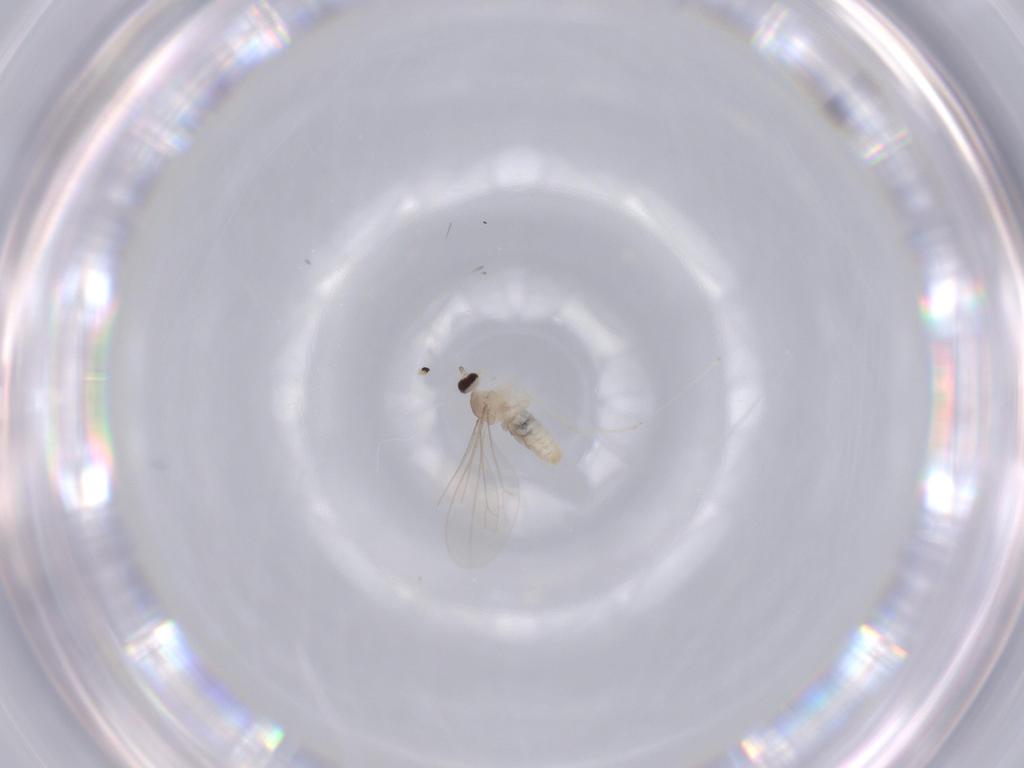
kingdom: Animalia
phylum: Arthropoda
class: Insecta
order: Diptera
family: Cecidomyiidae
